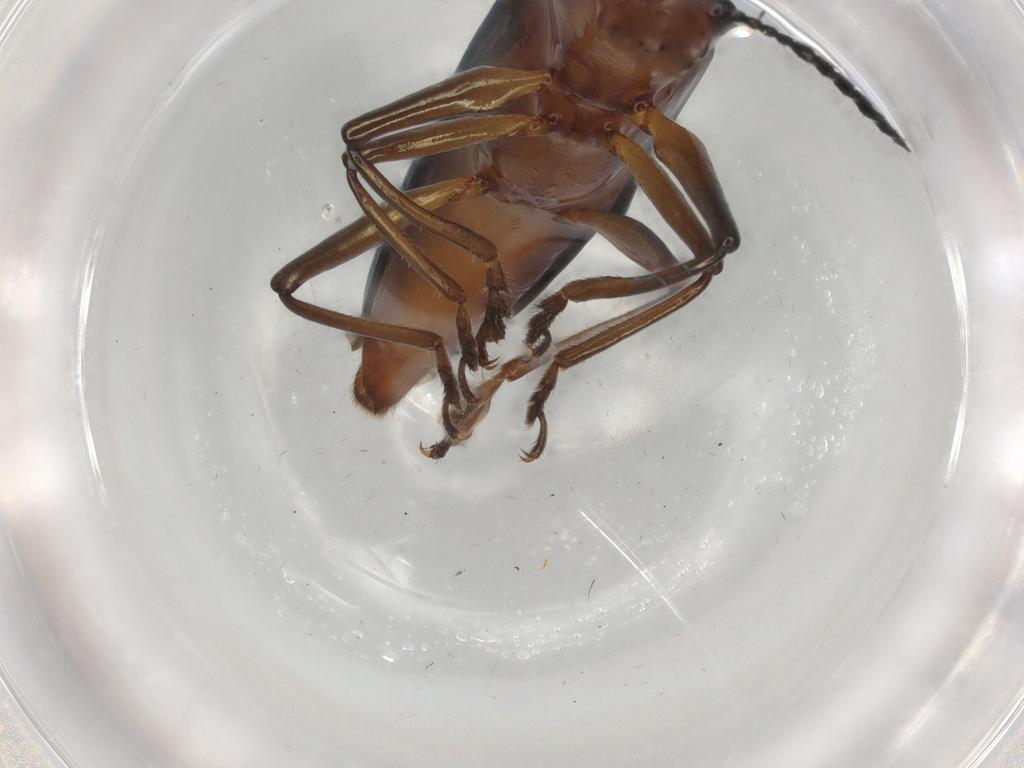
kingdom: Animalia
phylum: Arthropoda
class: Insecta
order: Coleoptera
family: Erotylidae
